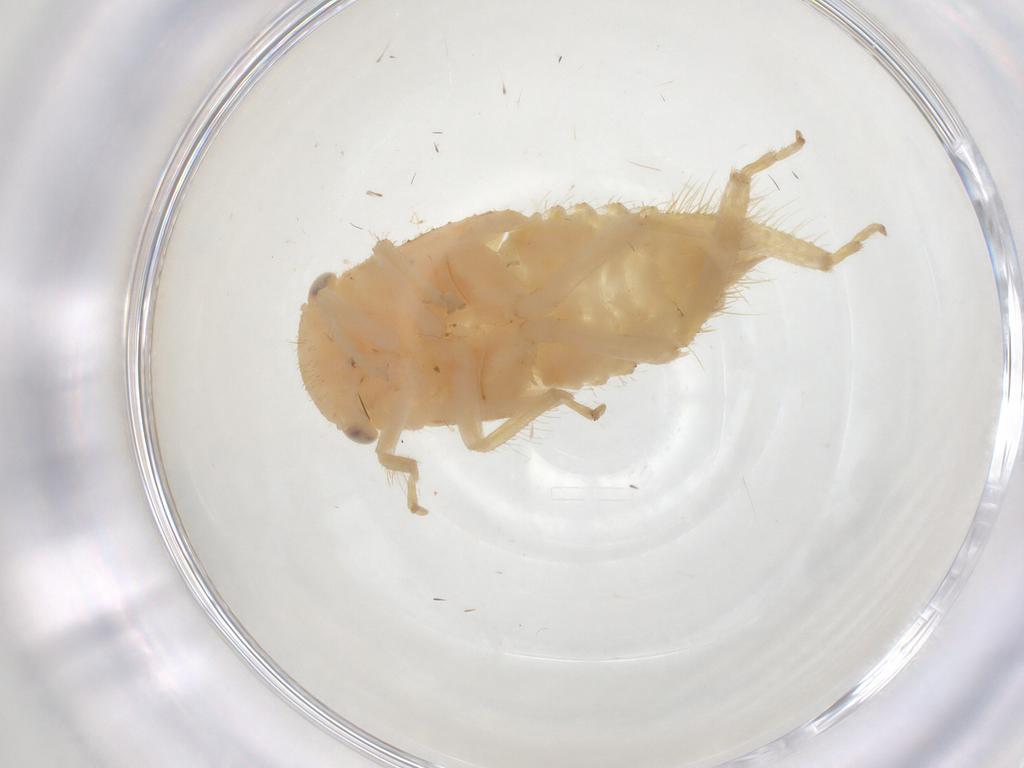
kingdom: Animalia
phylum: Arthropoda
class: Insecta
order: Hemiptera
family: Cicadellidae
